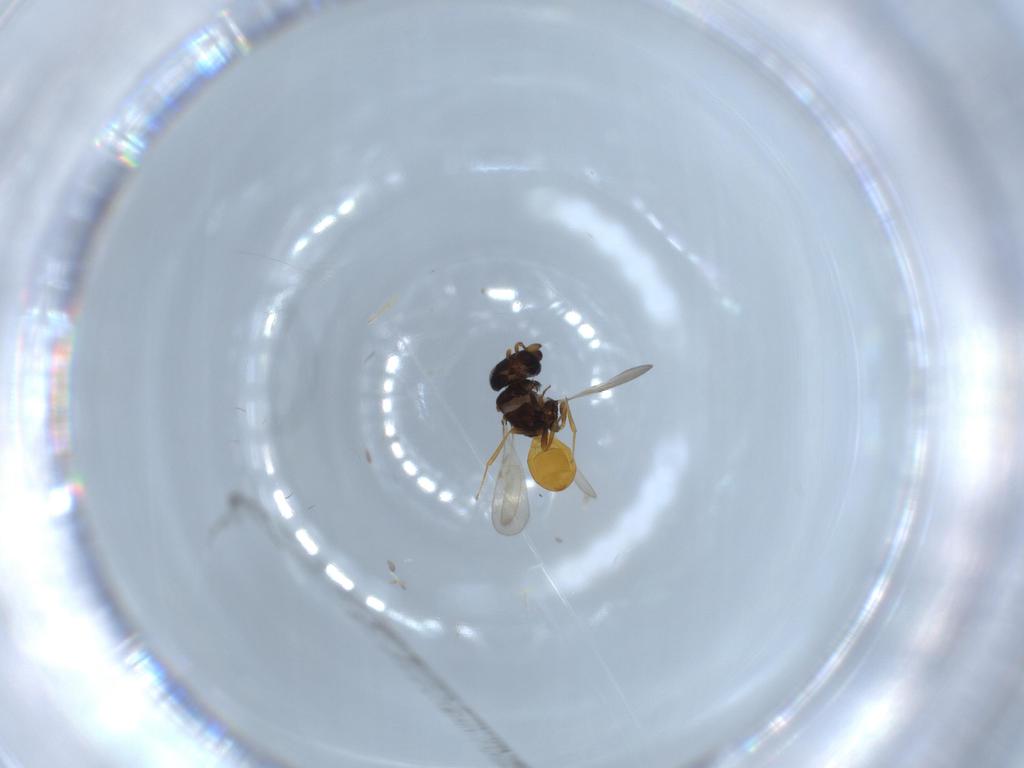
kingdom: Animalia
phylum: Arthropoda
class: Insecta
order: Hymenoptera
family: Scelionidae
